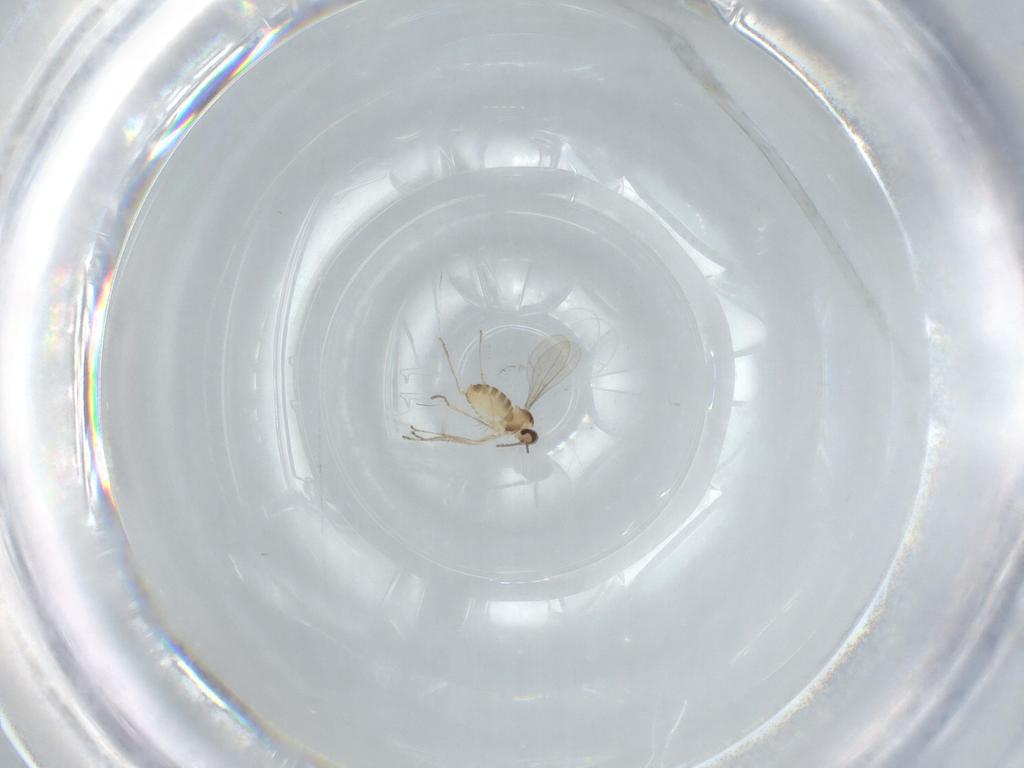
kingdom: Animalia
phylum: Arthropoda
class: Insecta
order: Diptera
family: Cecidomyiidae
